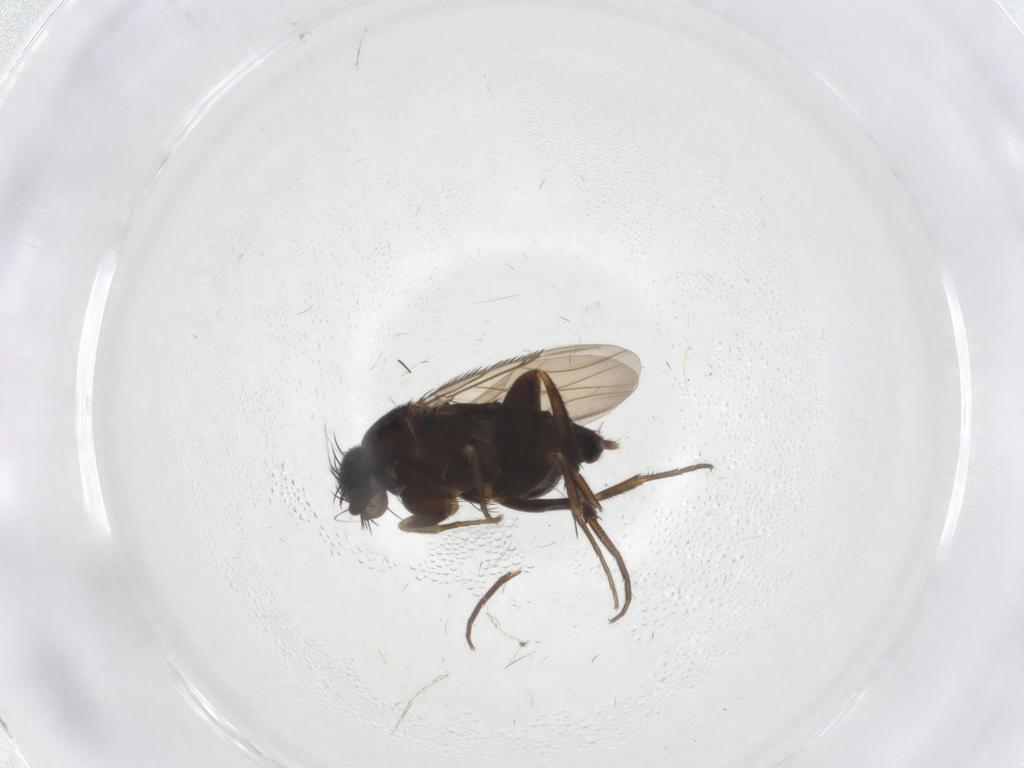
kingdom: Animalia
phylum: Arthropoda
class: Insecta
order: Diptera
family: Phoridae
